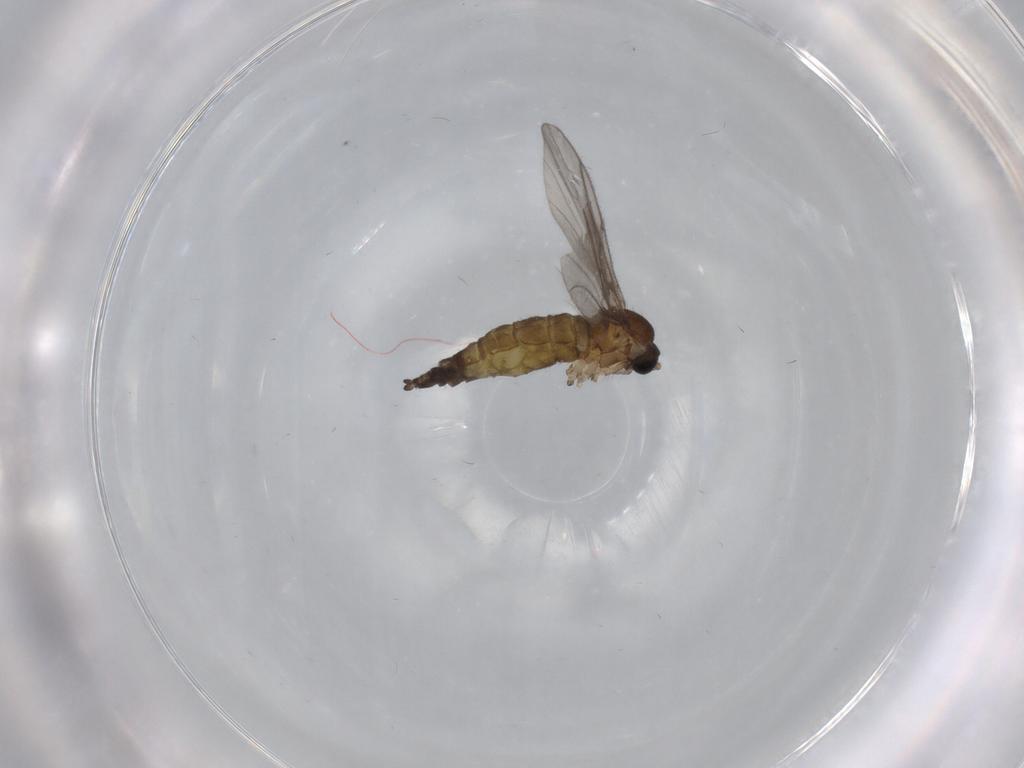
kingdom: Animalia
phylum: Arthropoda
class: Insecta
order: Diptera
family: Sciaridae
